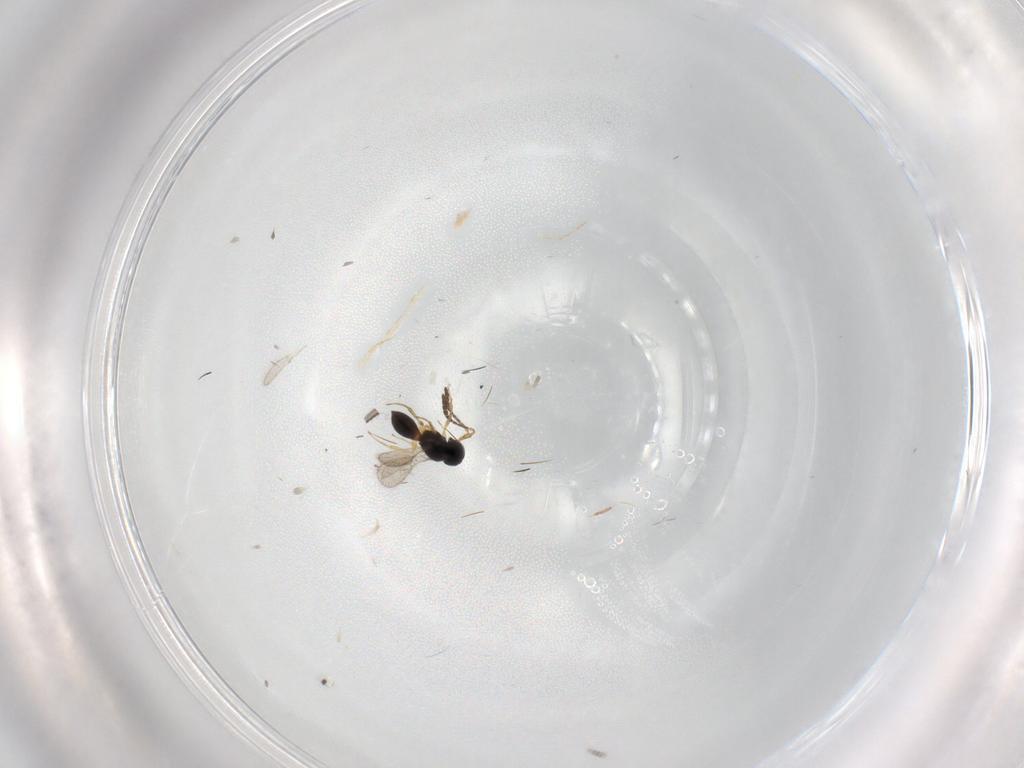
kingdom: Animalia
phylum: Arthropoda
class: Insecta
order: Hymenoptera
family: Scelionidae
